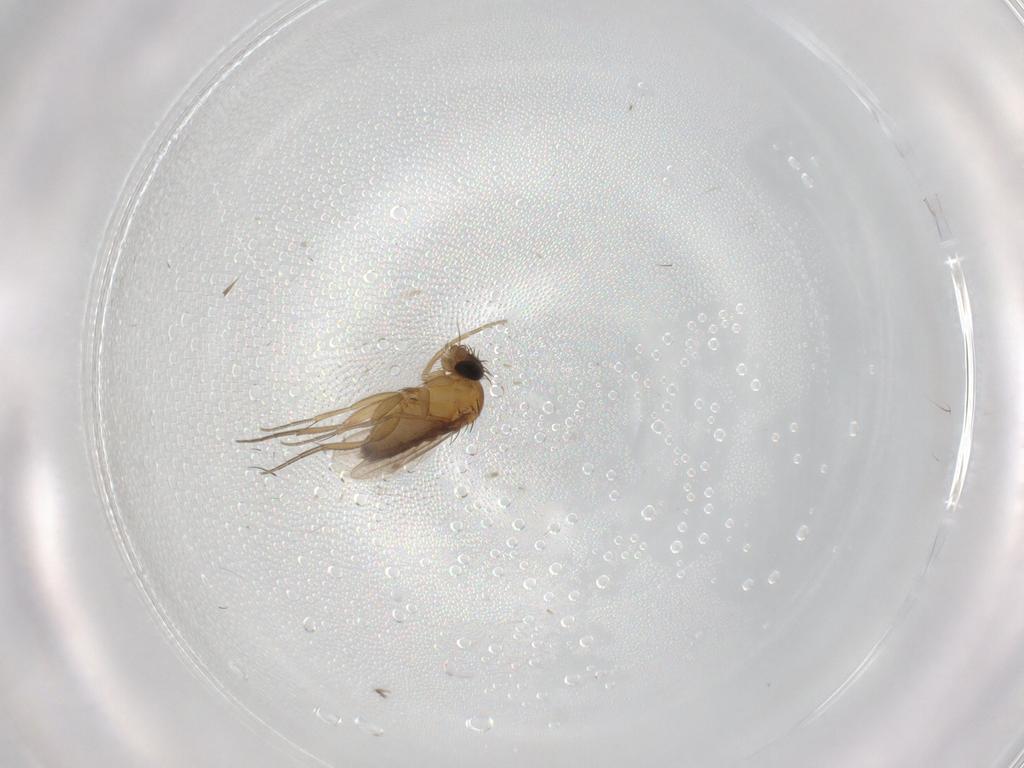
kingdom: Animalia
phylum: Arthropoda
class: Insecta
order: Diptera
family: Phoridae
